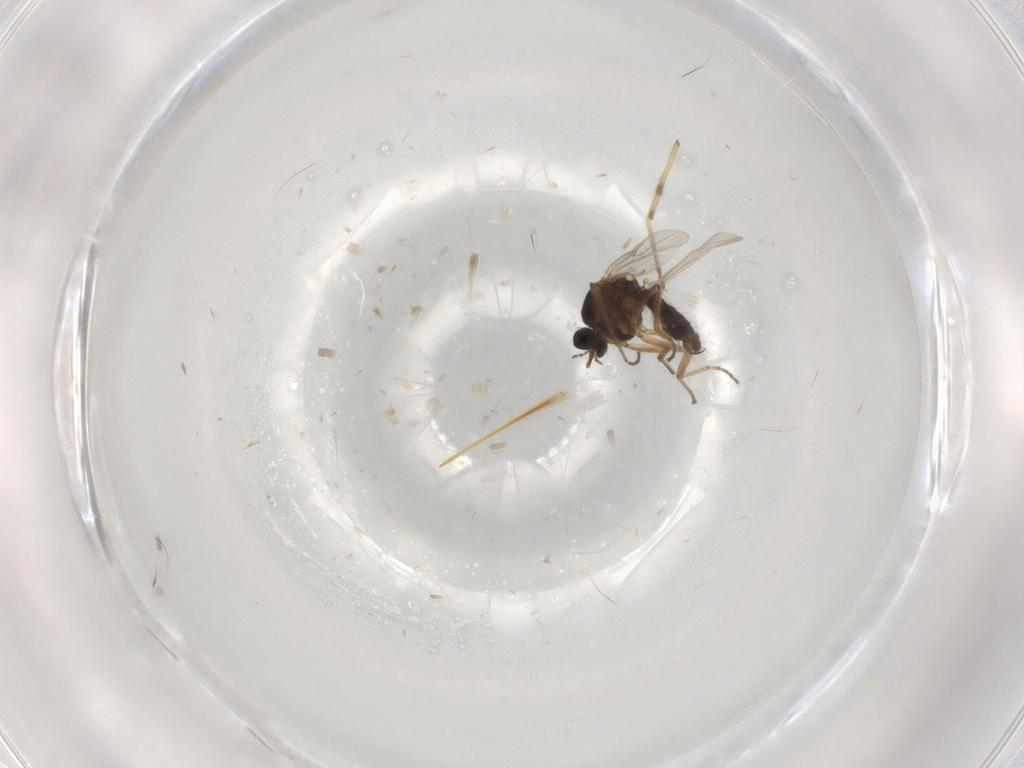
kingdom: Animalia
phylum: Arthropoda
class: Insecta
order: Diptera
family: Ceratopogonidae
